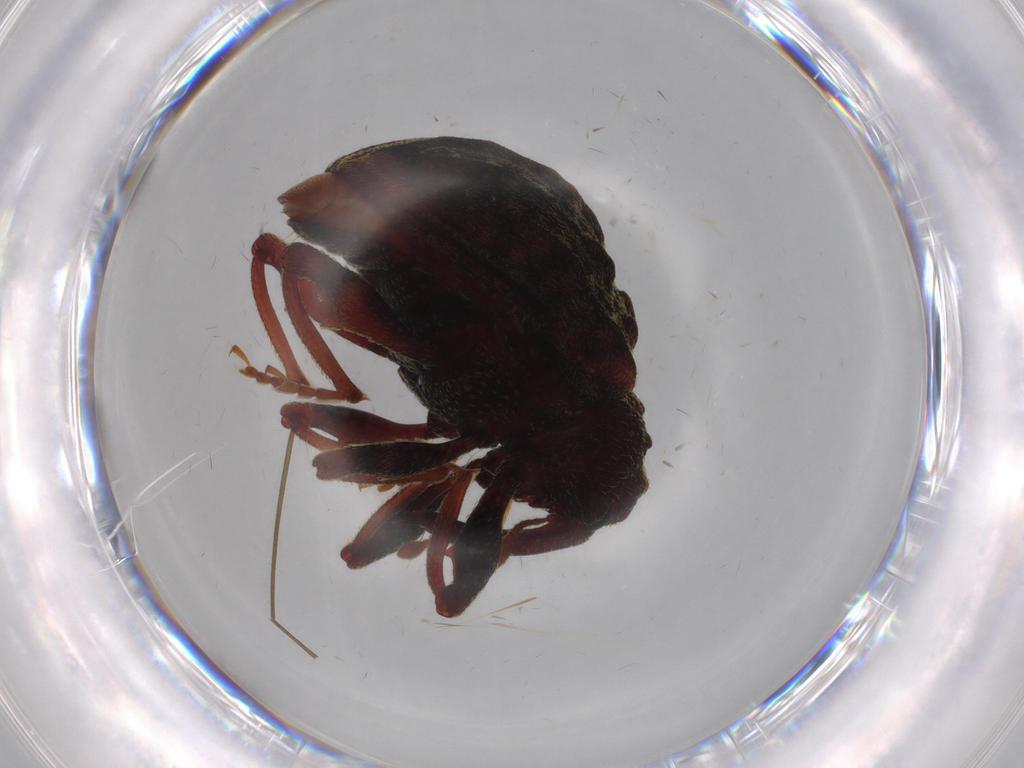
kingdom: Animalia
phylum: Arthropoda
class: Insecta
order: Coleoptera
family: Curculionidae
